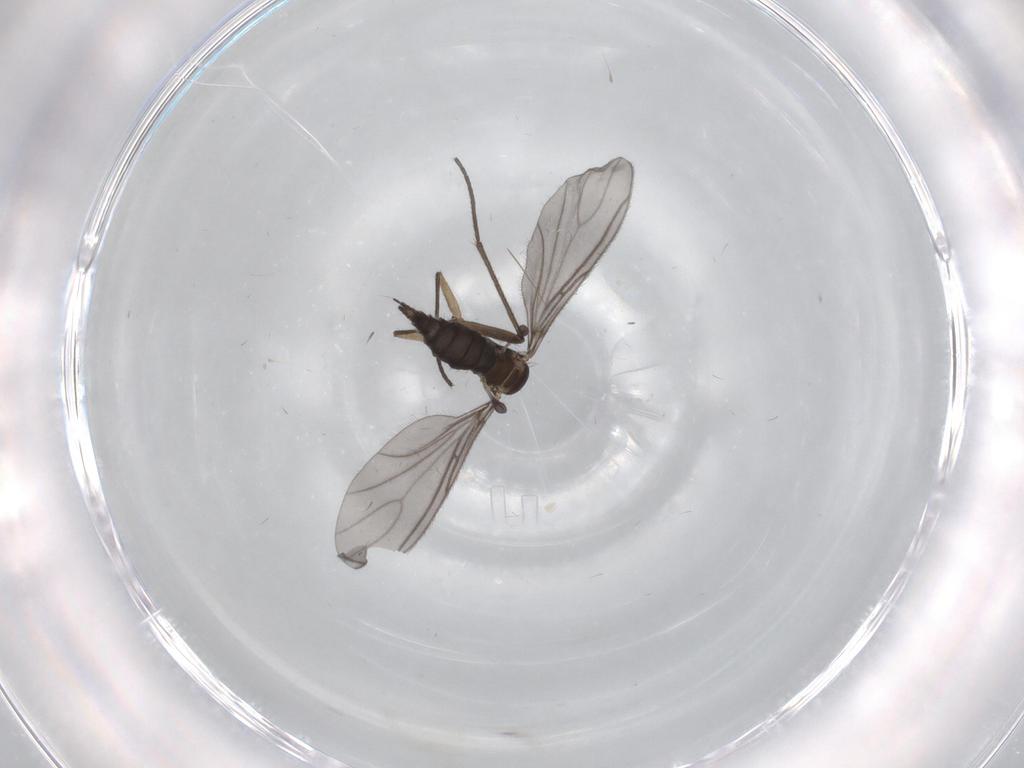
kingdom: Animalia
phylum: Arthropoda
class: Insecta
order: Diptera
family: Sciaridae
